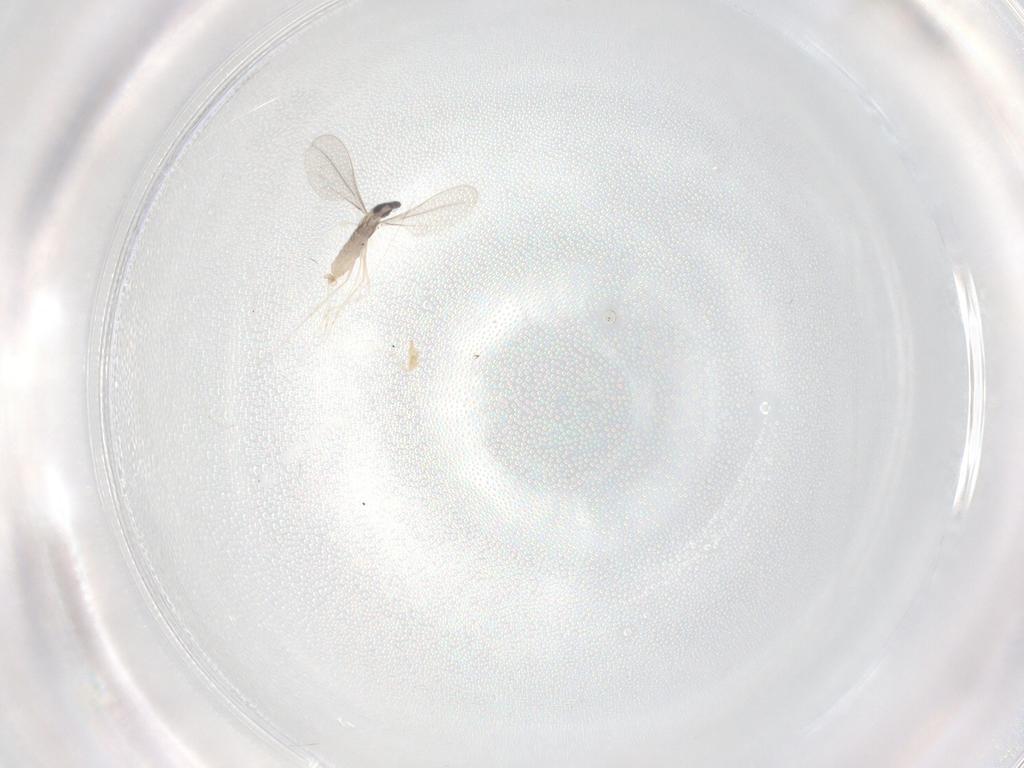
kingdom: Animalia
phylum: Arthropoda
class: Insecta
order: Diptera
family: Cecidomyiidae
